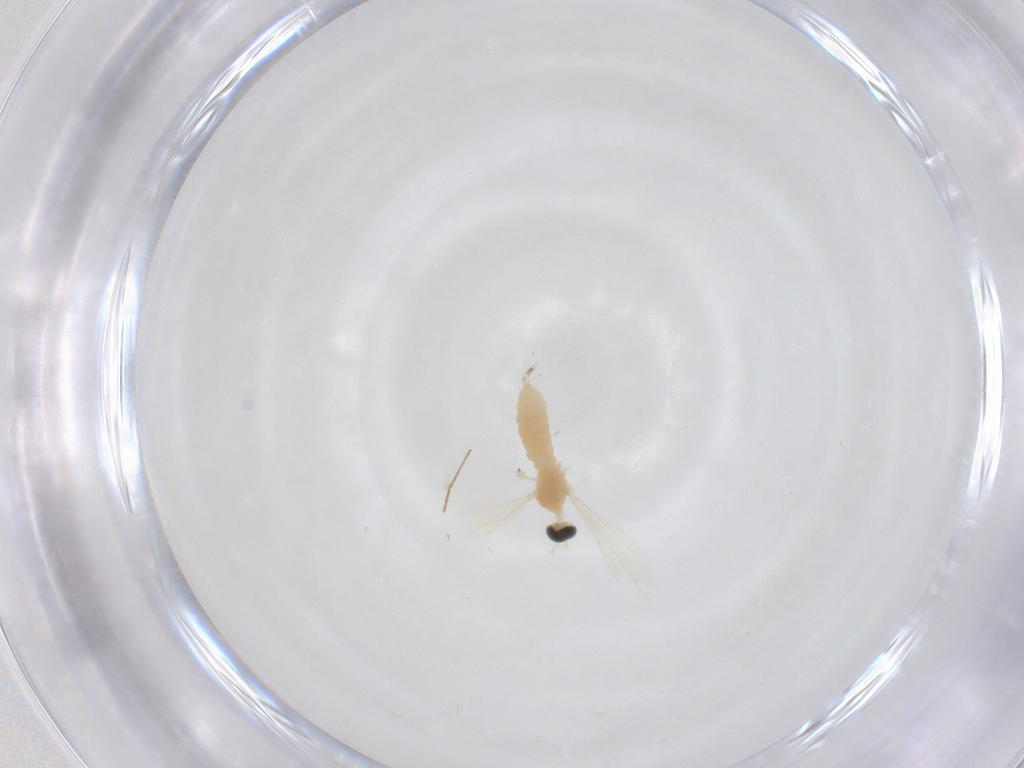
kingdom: Animalia
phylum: Arthropoda
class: Insecta
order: Diptera
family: Cecidomyiidae
